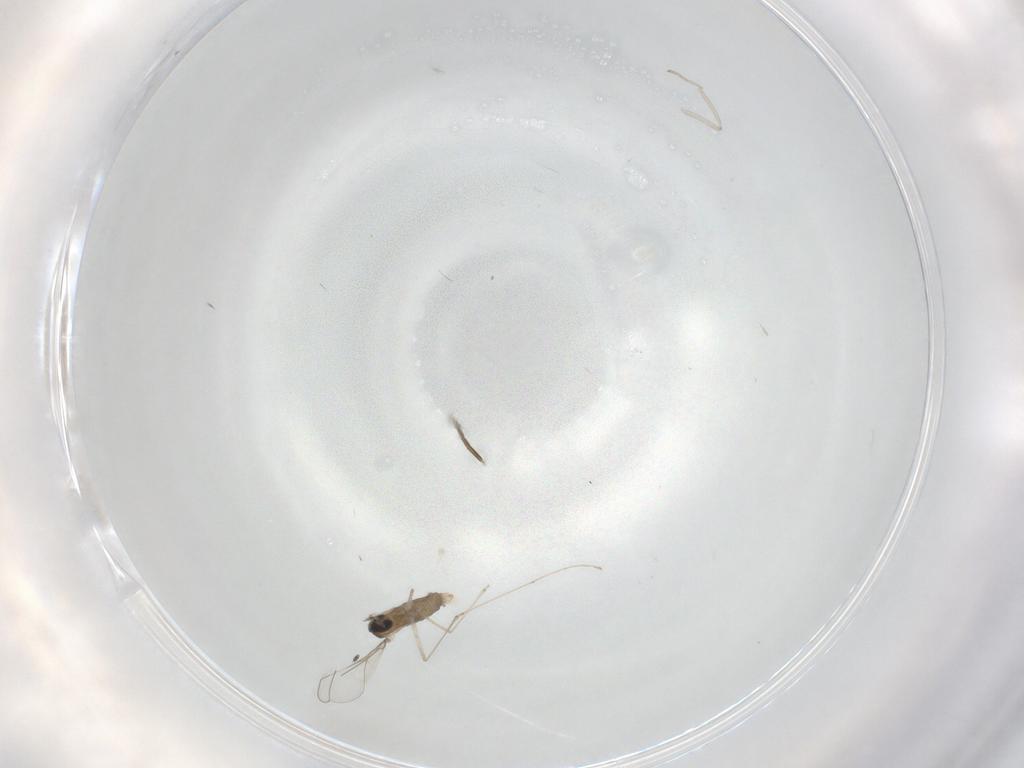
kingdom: Animalia
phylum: Arthropoda
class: Insecta
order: Diptera
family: Cecidomyiidae
